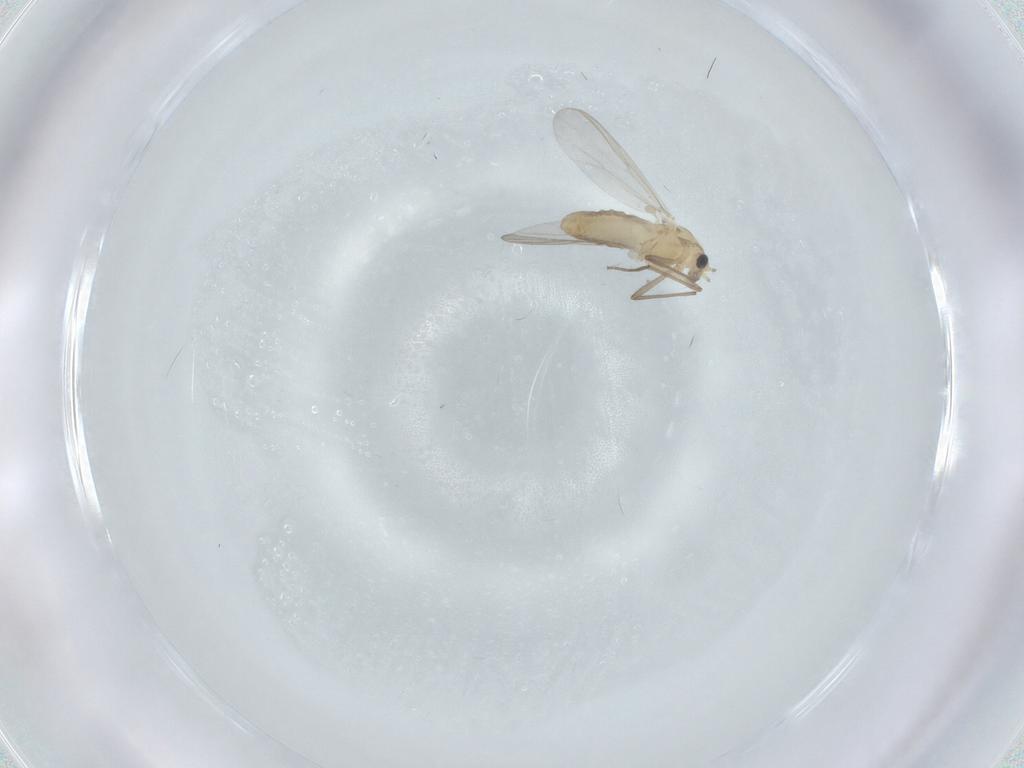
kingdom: Animalia
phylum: Arthropoda
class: Insecta
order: Diptera
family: Chironomidae
